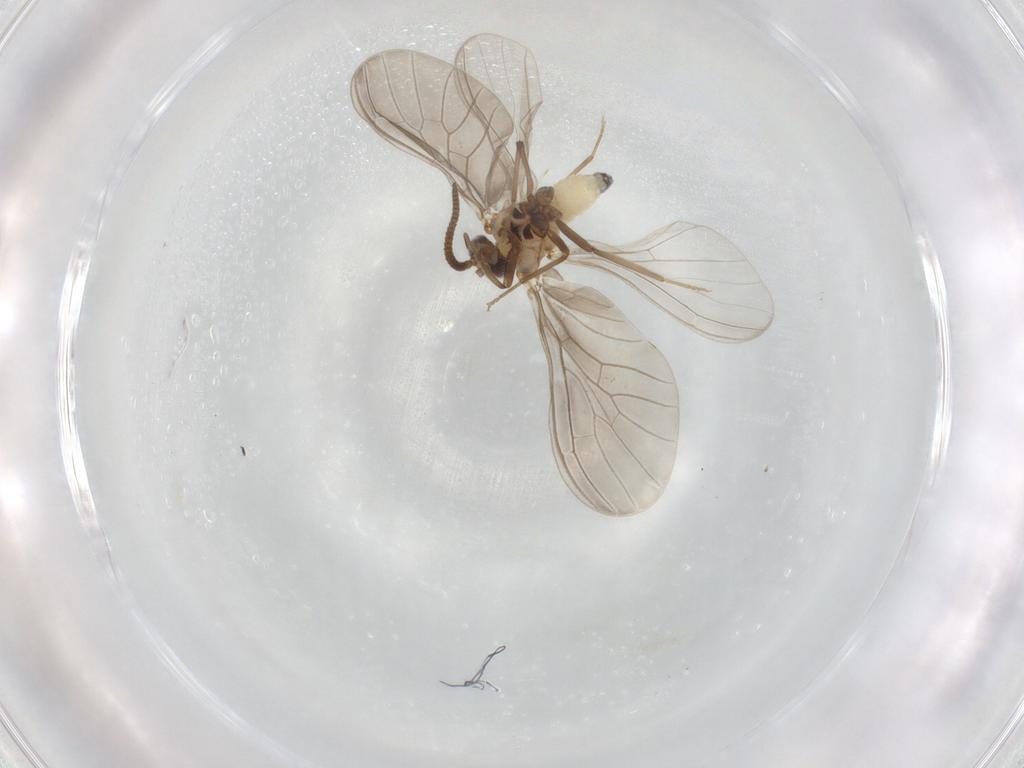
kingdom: Animalia
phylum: Arthropoda
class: Insecta
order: Neuroptera
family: Coniopterygidae
